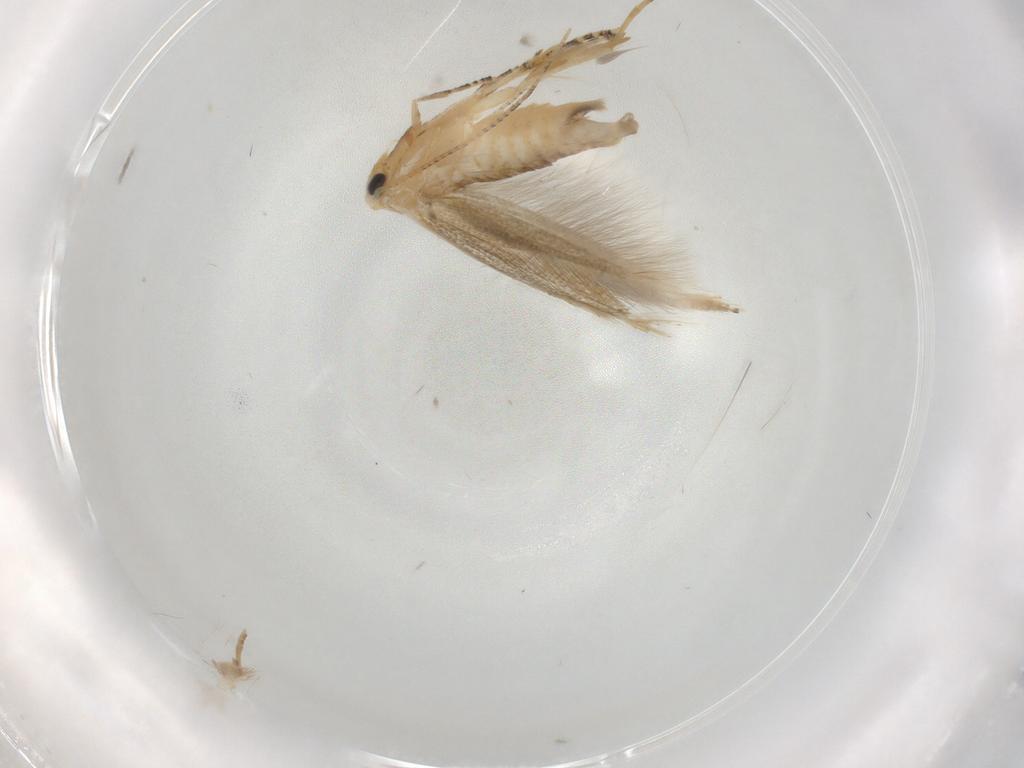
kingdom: Animalia
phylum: Arthropoda
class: Insecta
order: Lepidoptera
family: Bucculatricidae
